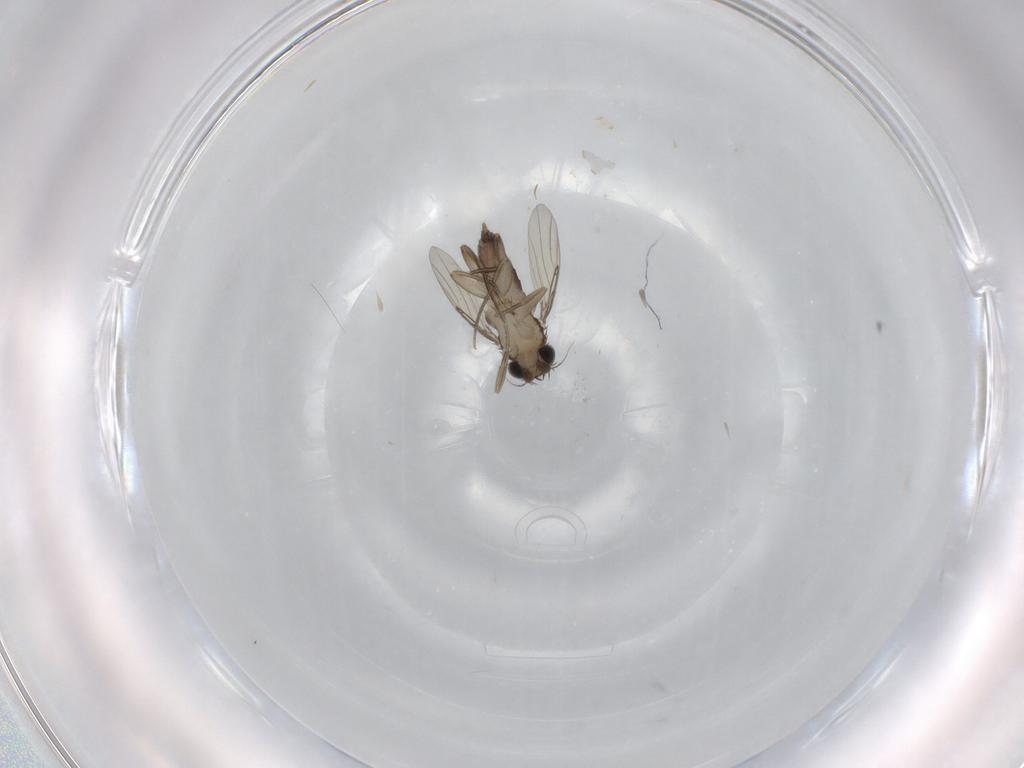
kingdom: Animalia
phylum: Arthropoda
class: Insecta
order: Diptera
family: Phoridae
